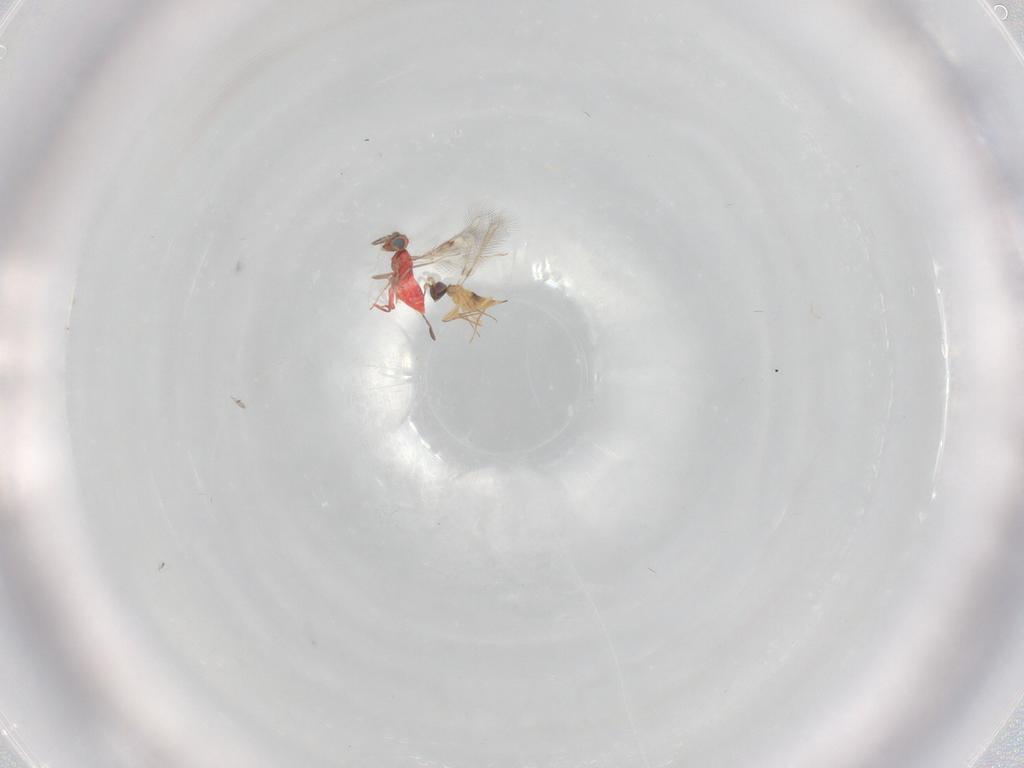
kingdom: Animalia
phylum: Arthropoda
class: Insecta
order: Hymenoptera
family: Mymaridae
